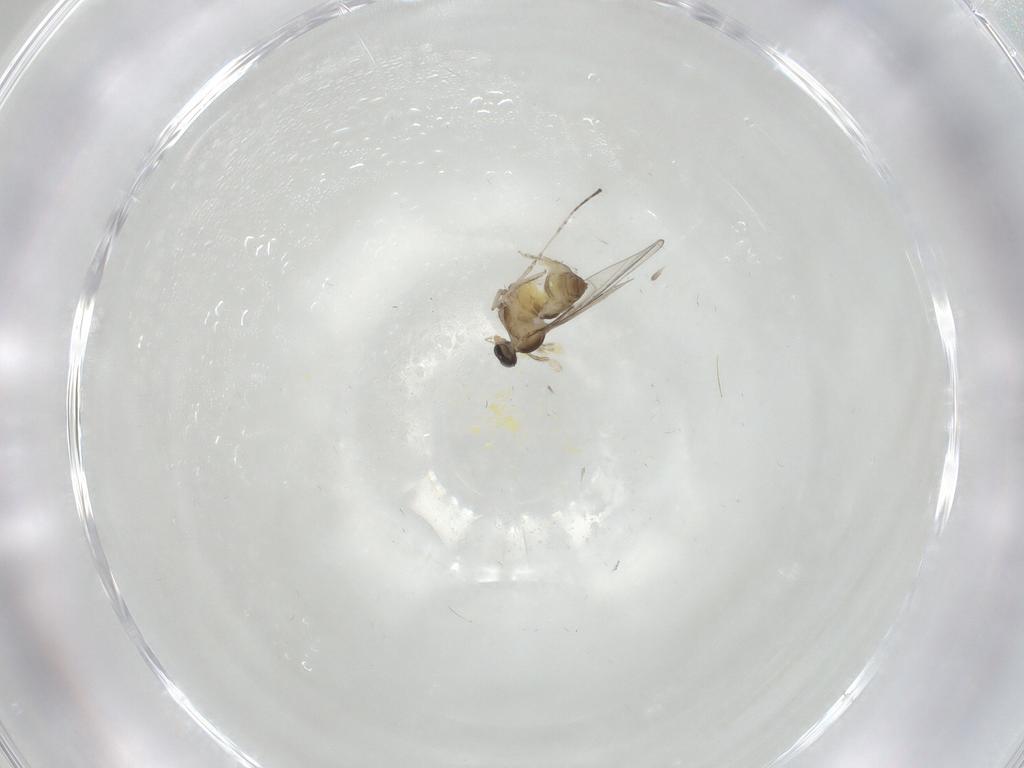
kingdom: Animalia
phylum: Arthropoda
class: Insecta
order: Diptera
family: Cecidomyiidae
